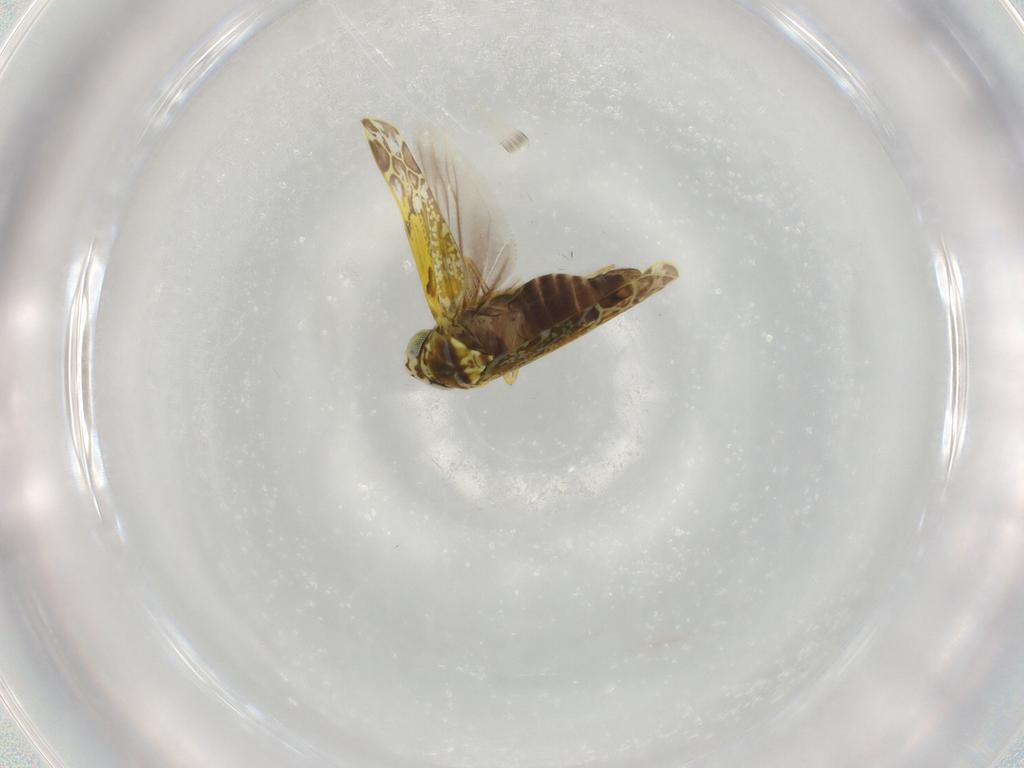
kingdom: Animalia
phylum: Arthropoda
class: Insecta
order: Hemiptera
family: Cicadellidae
